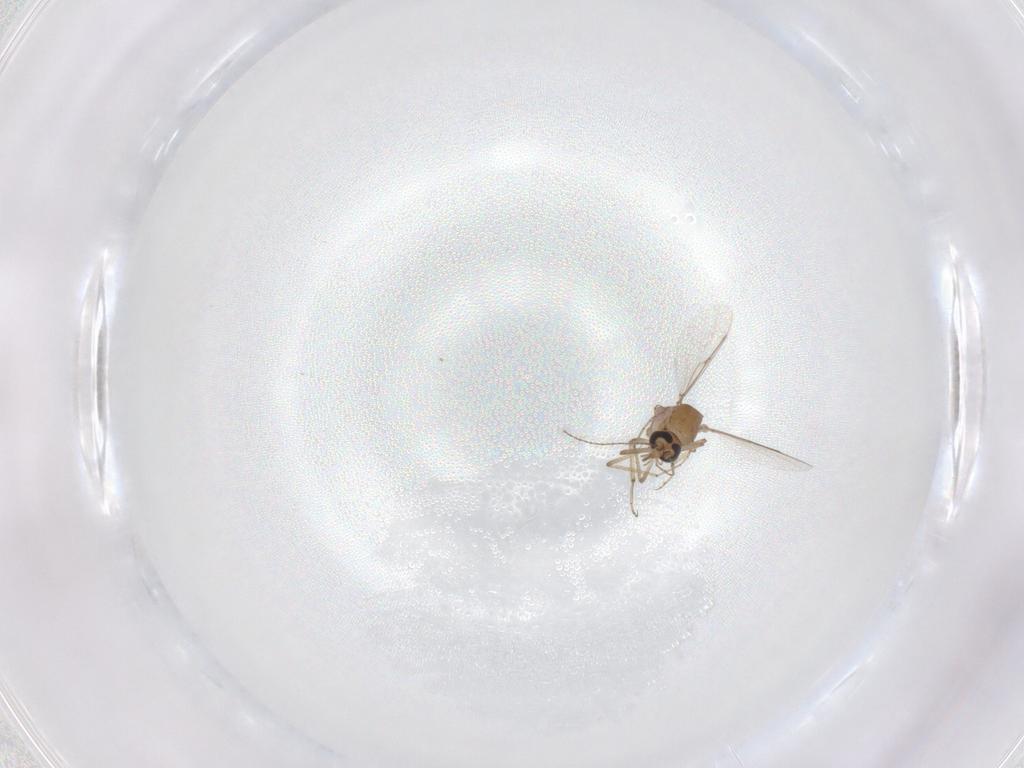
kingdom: Animalia
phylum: Arthropoda
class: Insecta
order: Diptera
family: Ceratopogonidae
